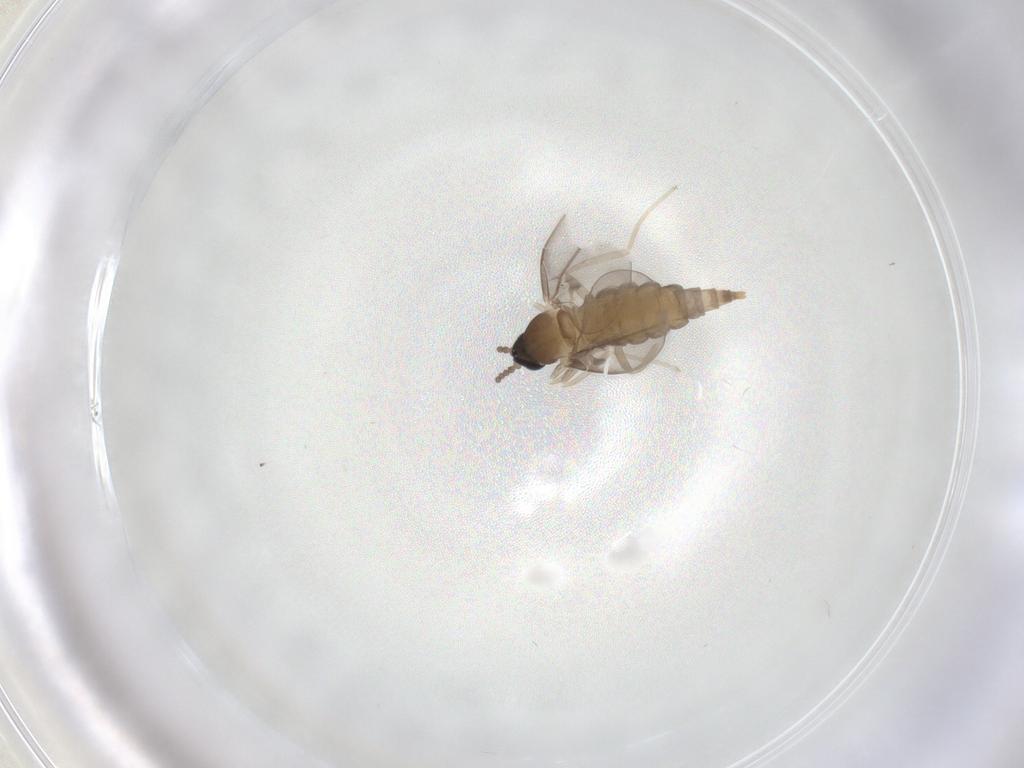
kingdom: Animalia
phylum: Arthropoda
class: Insecta
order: Diptera
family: Cecidomyiidae
